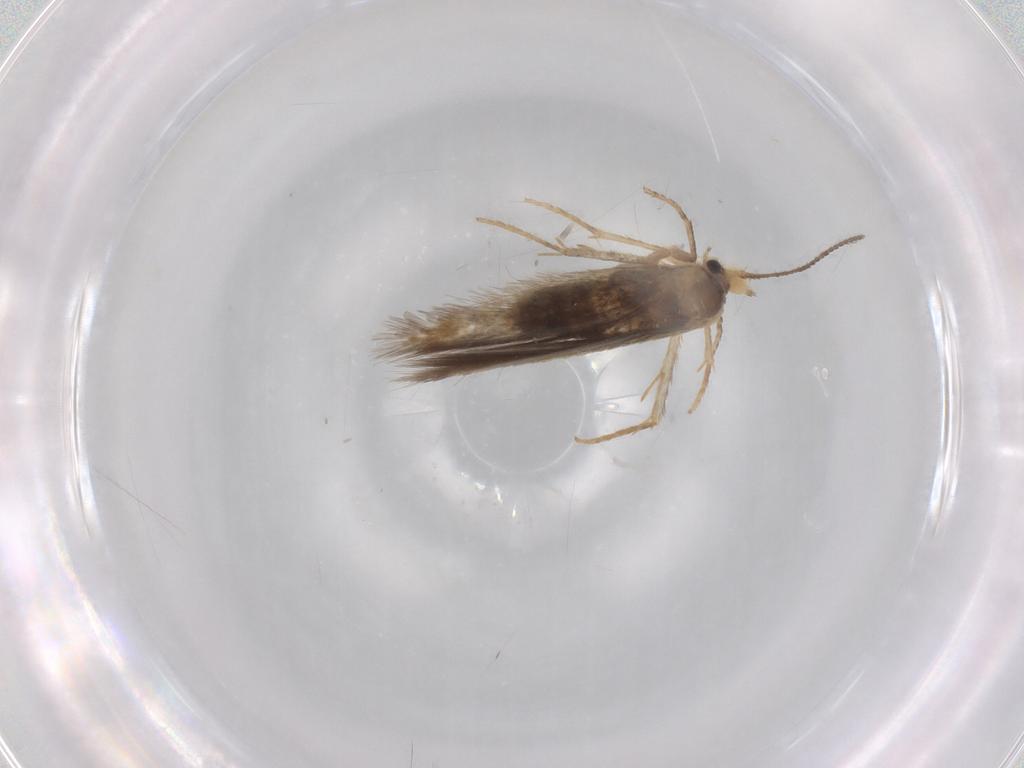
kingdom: Animalia
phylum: Arthropoda
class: Insecta
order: Lepidoptera
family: Nepticulidae
